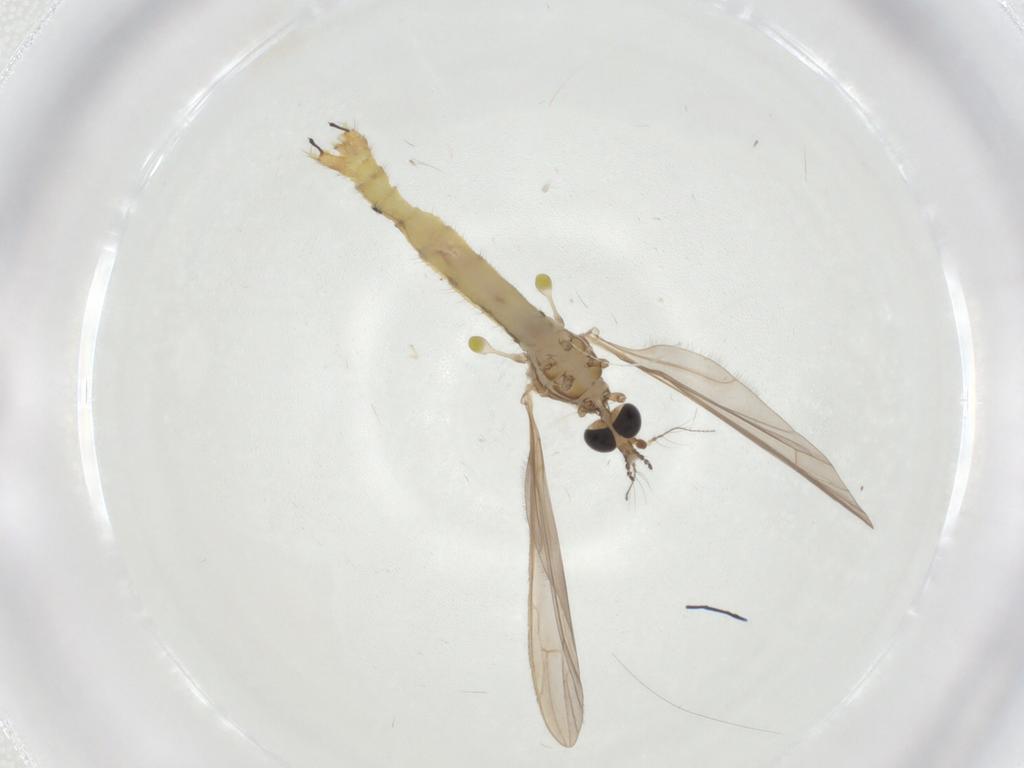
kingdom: Animalia
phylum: Arthropoda
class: Insecta
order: Diptera
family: Limoniidae
